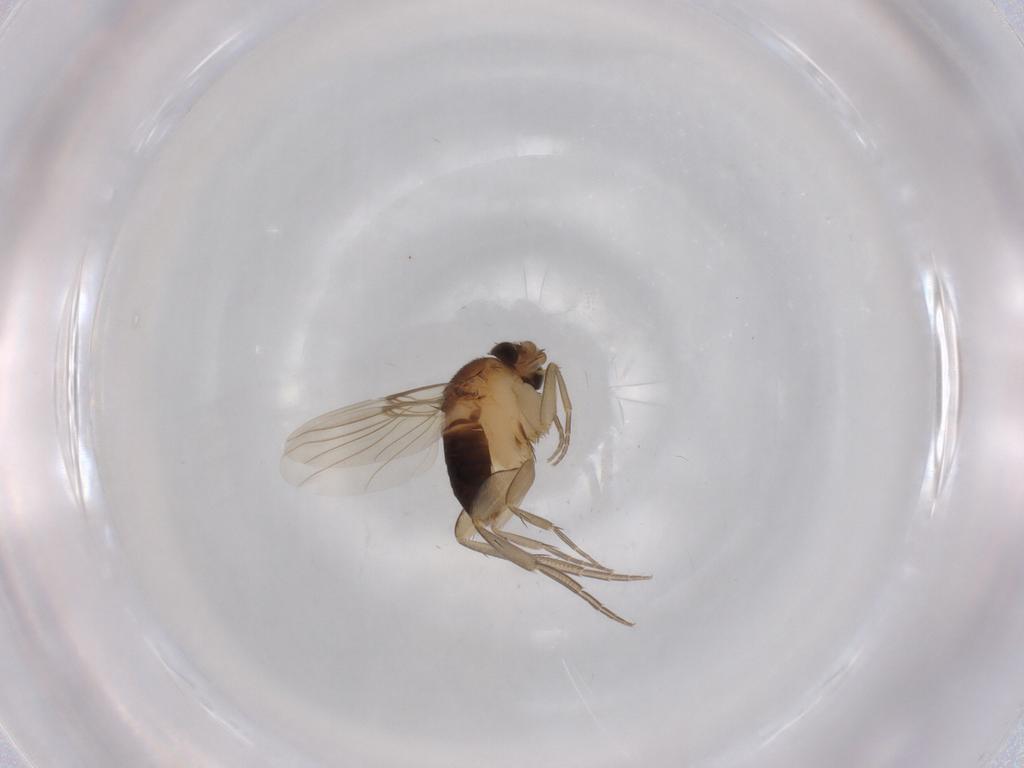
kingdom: Animalia
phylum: Arthropoda
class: Insecta
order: Diptera
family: Phoridae
